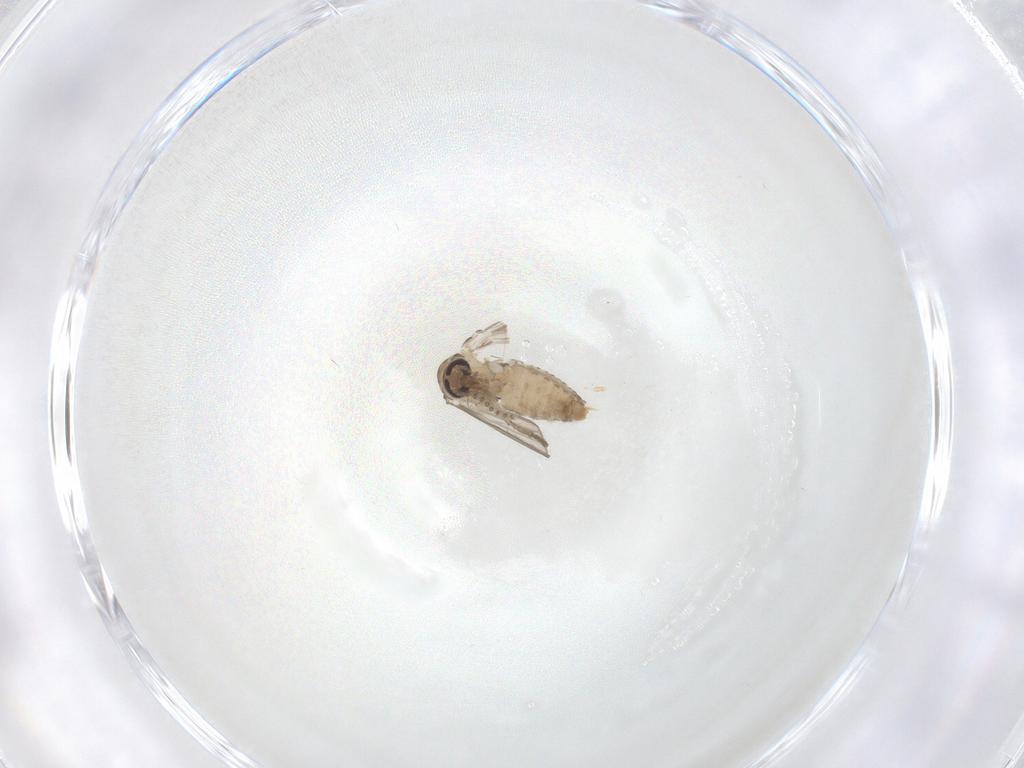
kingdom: Animalia
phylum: Arthropoda
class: Insecta
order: Diptera
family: Psychodidae
